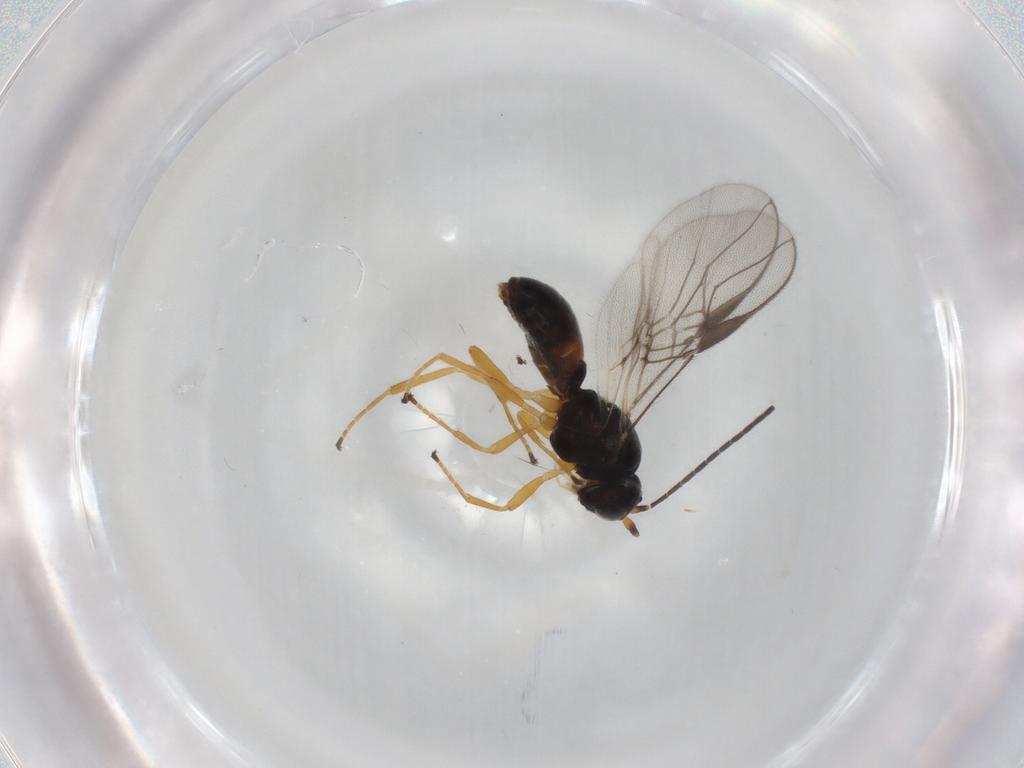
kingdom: Animalia
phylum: Arthropoda
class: Insecta
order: Hymenoptera
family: Braconidae
